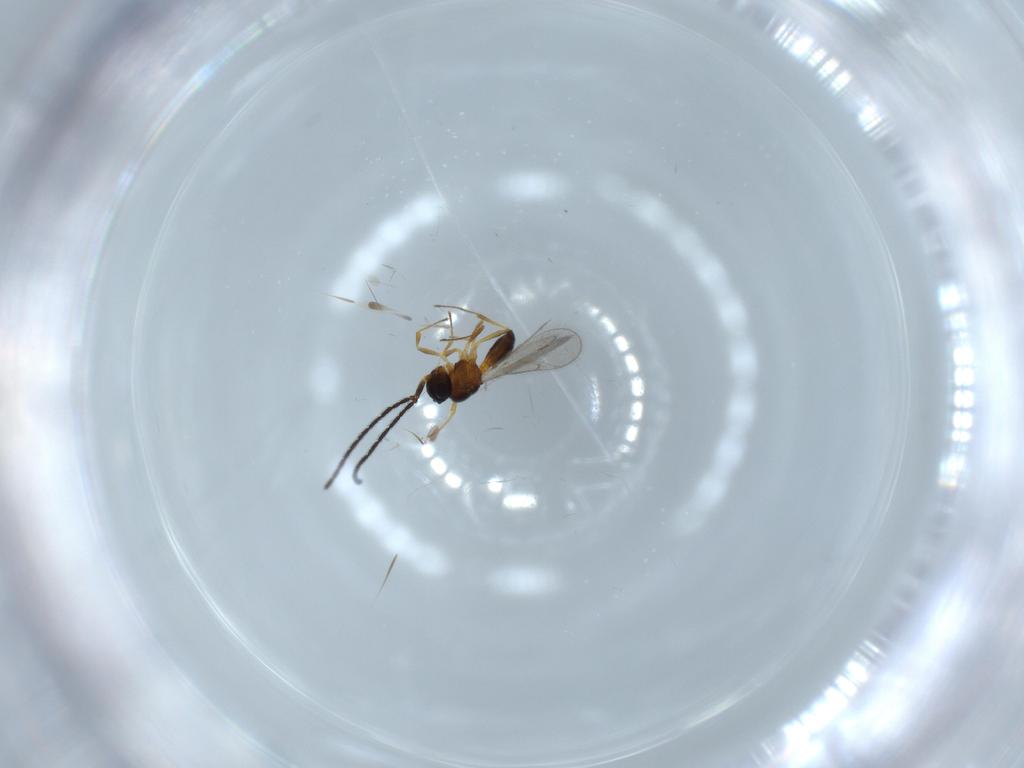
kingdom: Animalia
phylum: Arthropoda
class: Insecta
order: Hymenoptera
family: Scelionidae
